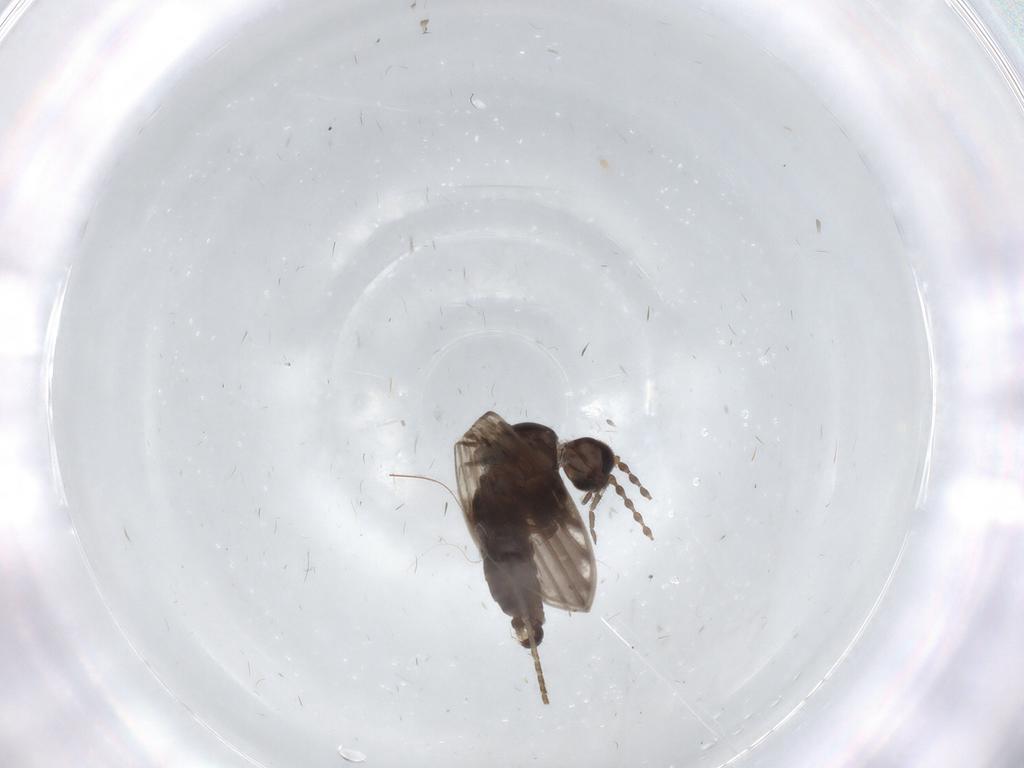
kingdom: Animalia
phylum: Arthropoda
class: Insecta
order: Diptera
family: Psychodidae
